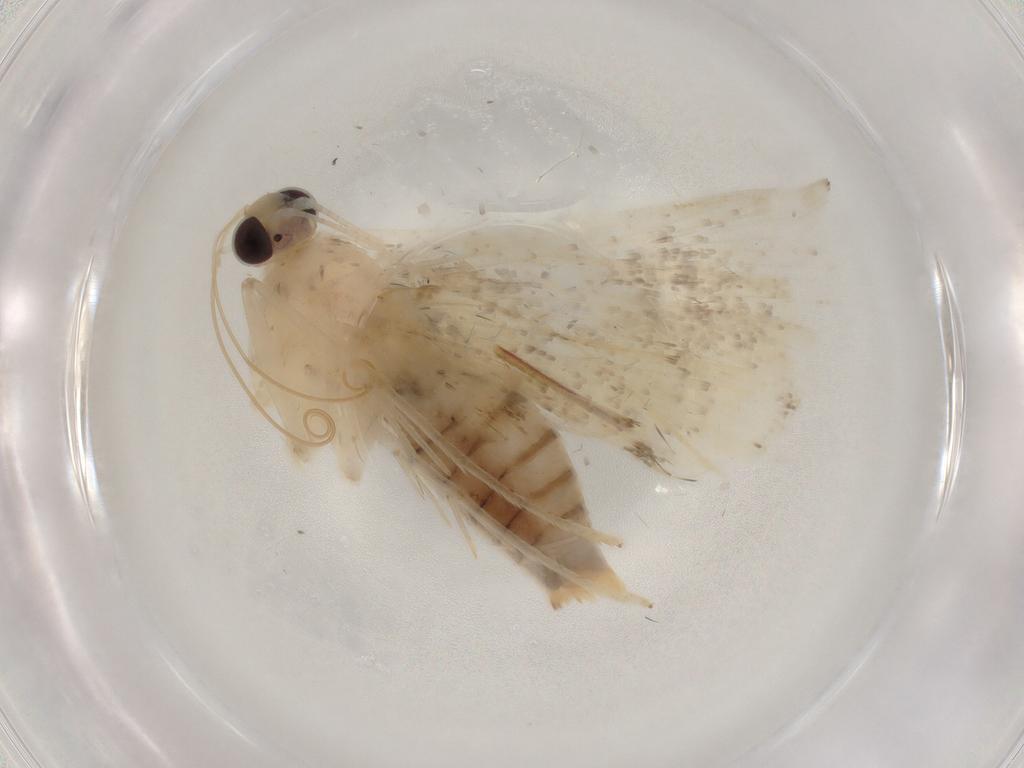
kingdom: Animalia
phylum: Arthropoda
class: Insecta
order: Lepidoptera
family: Crambidae
